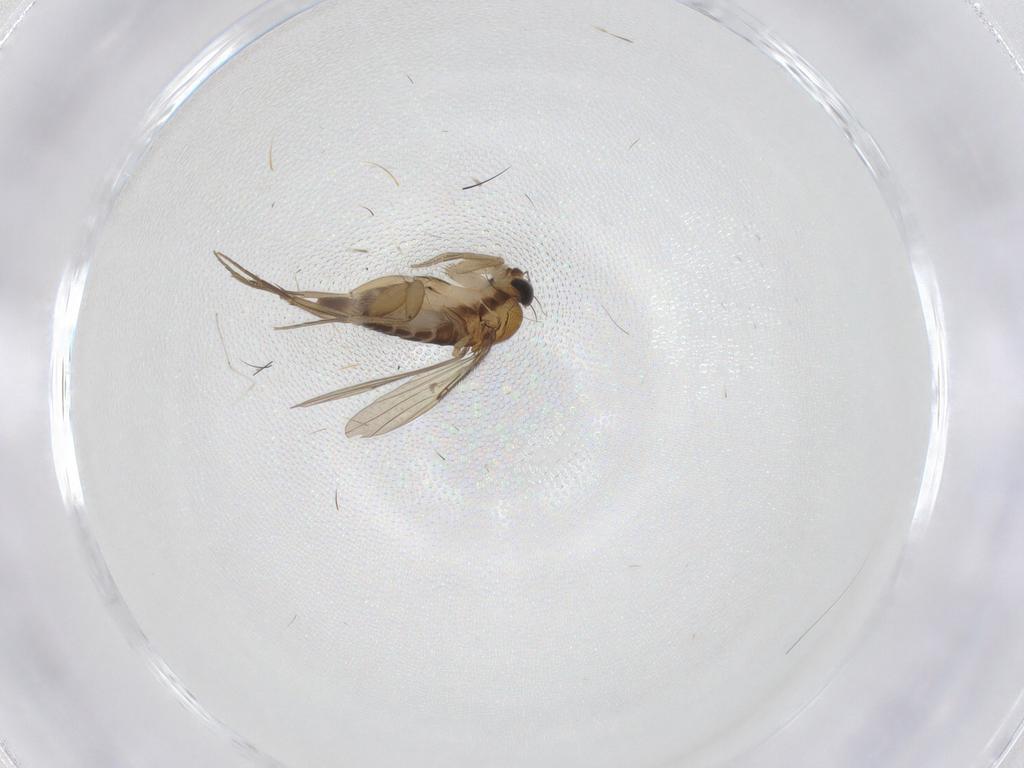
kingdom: Animalia
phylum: Arthropoda
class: Insecta
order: Diptera
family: Phoridae
